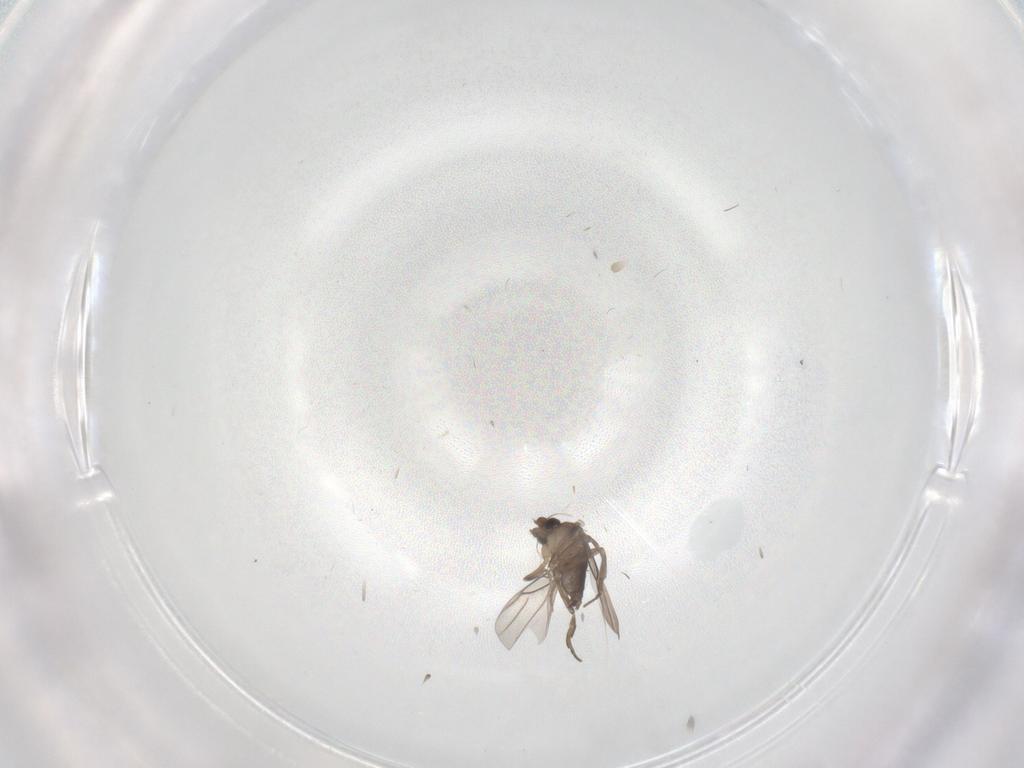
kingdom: Animalia
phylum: Arthropoda
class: Insecta
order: Diptera
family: Phoridae
